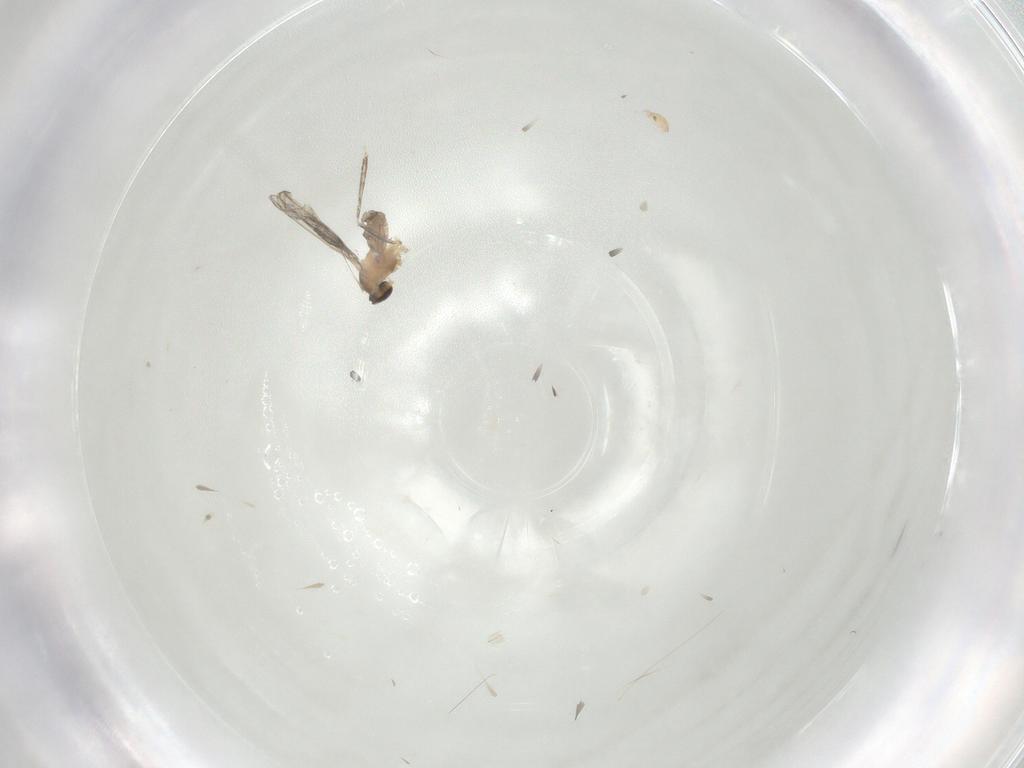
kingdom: Animalia
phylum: Arthropoda
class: Insecta
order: Diptera
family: Cecidomyiidae
